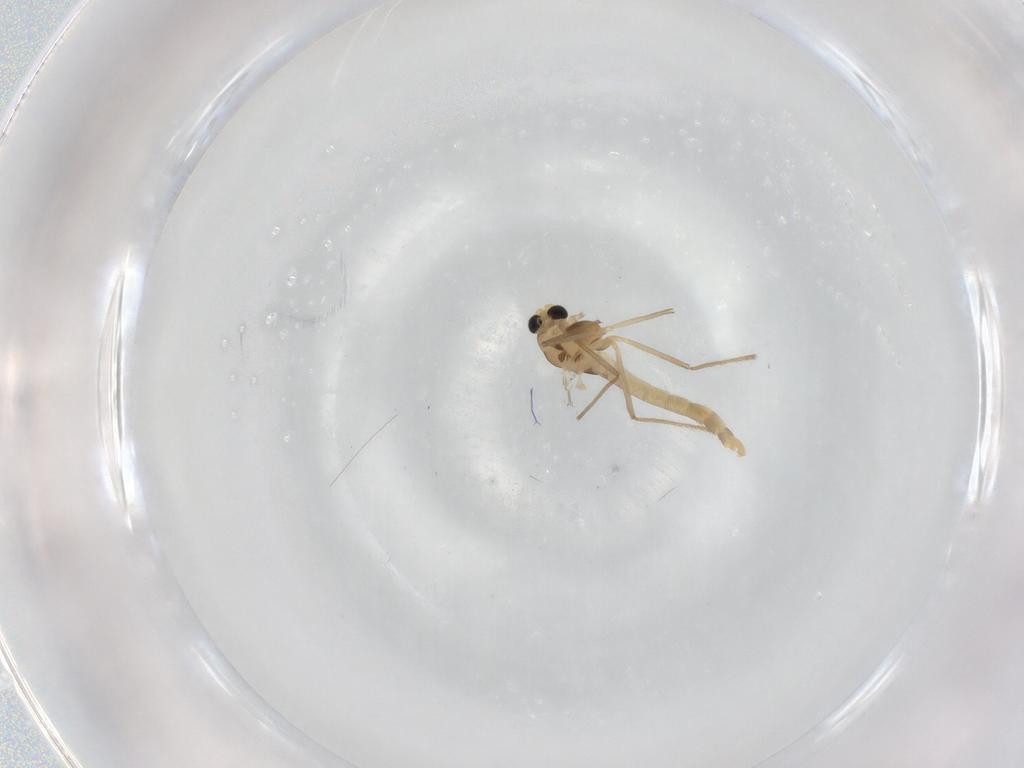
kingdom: Animalia
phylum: Arthropoda
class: Insecta
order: Diptera
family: Chironomidae
